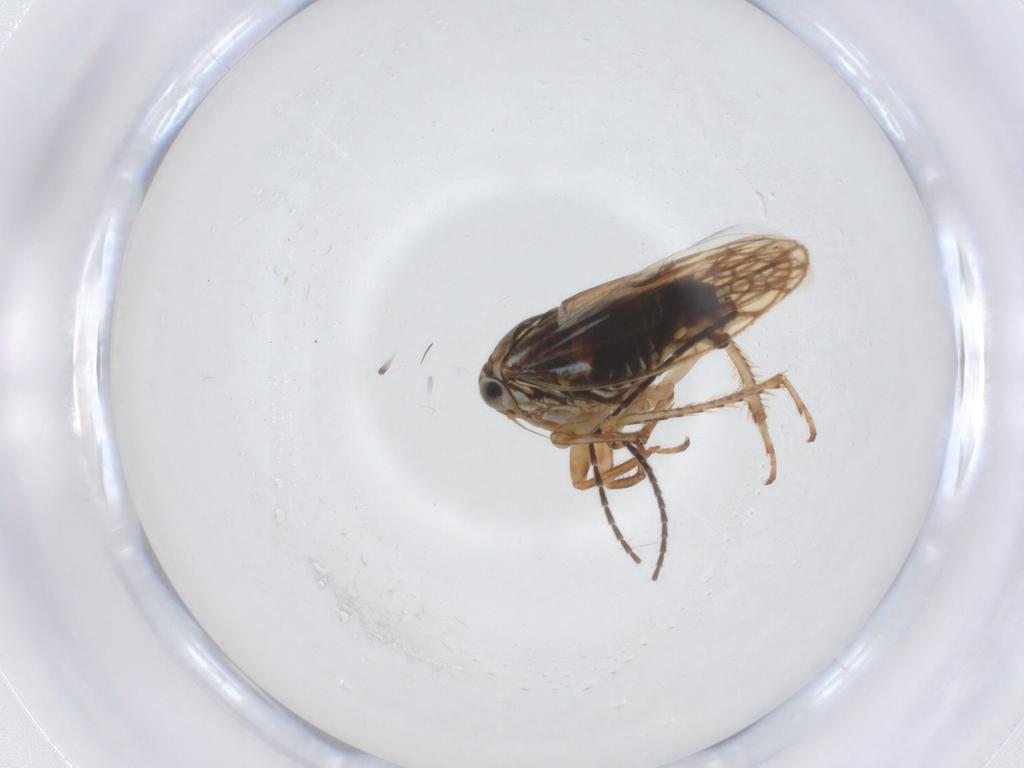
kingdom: Animalia
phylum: Arthropoda
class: Insecta
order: Hemiptera
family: Cicadellidae
